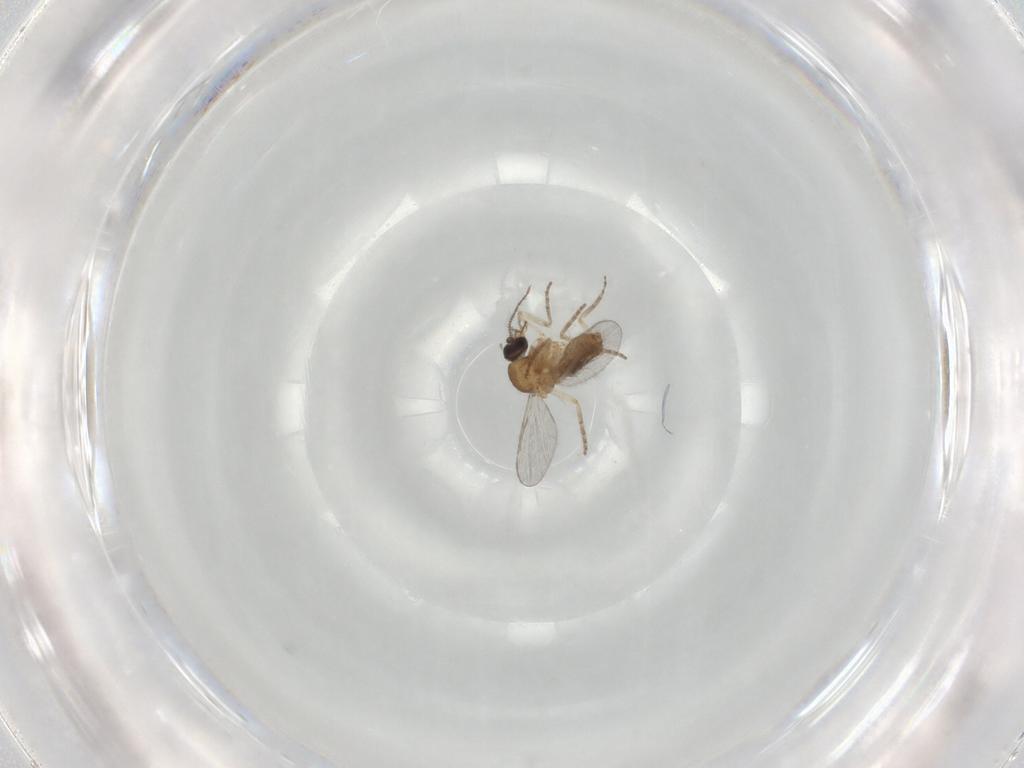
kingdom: Animalia
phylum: Arthropoda
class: Insecta
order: Diptera
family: Ceratopogonidae
